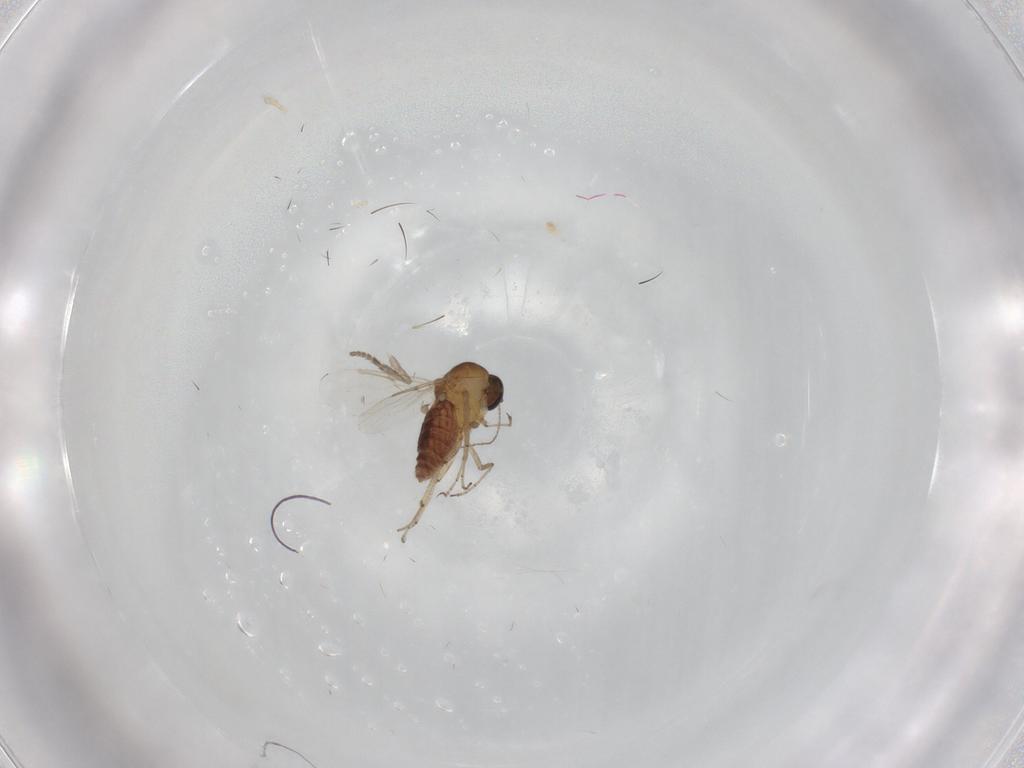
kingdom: Animalia
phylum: Arthropoda
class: Insecta
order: Diptera
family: Ceratopogonidae
